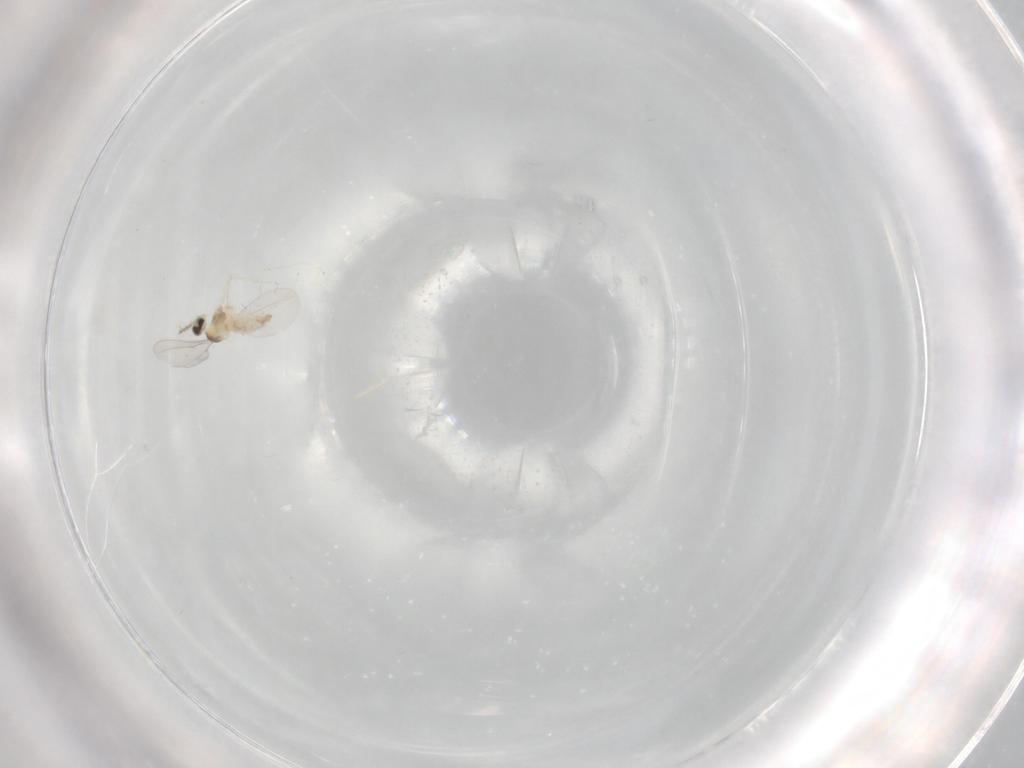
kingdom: Animalia
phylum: Arthropoda
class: Insecta
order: Diptera
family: Cecidomyiidae
